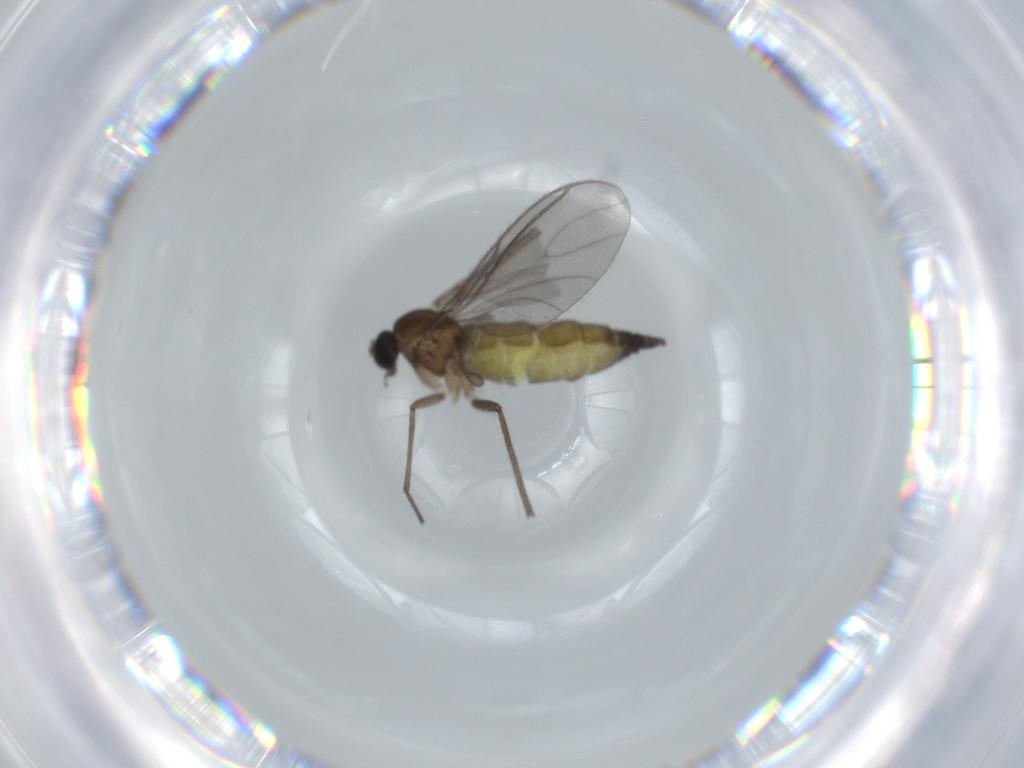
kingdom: Animalia
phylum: Arthropoda
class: Insecta
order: Diptera
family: Sciaridae
